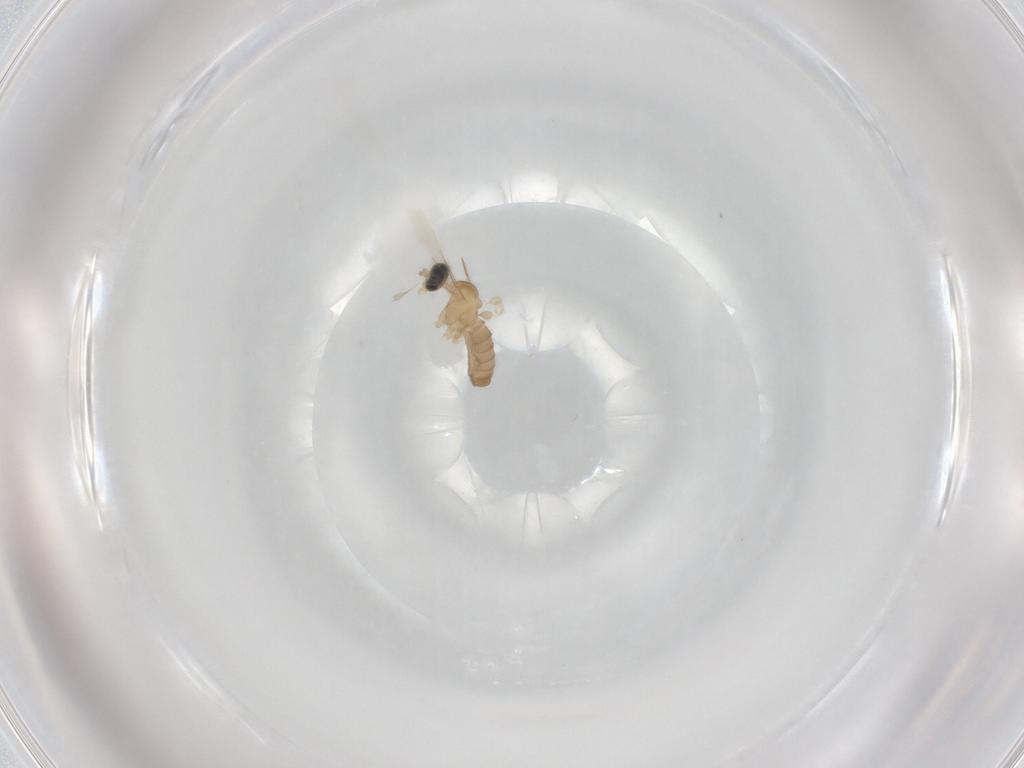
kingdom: Animalia
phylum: Arthropoda
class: Insecta
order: Diptera
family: Cecidomyiidae
